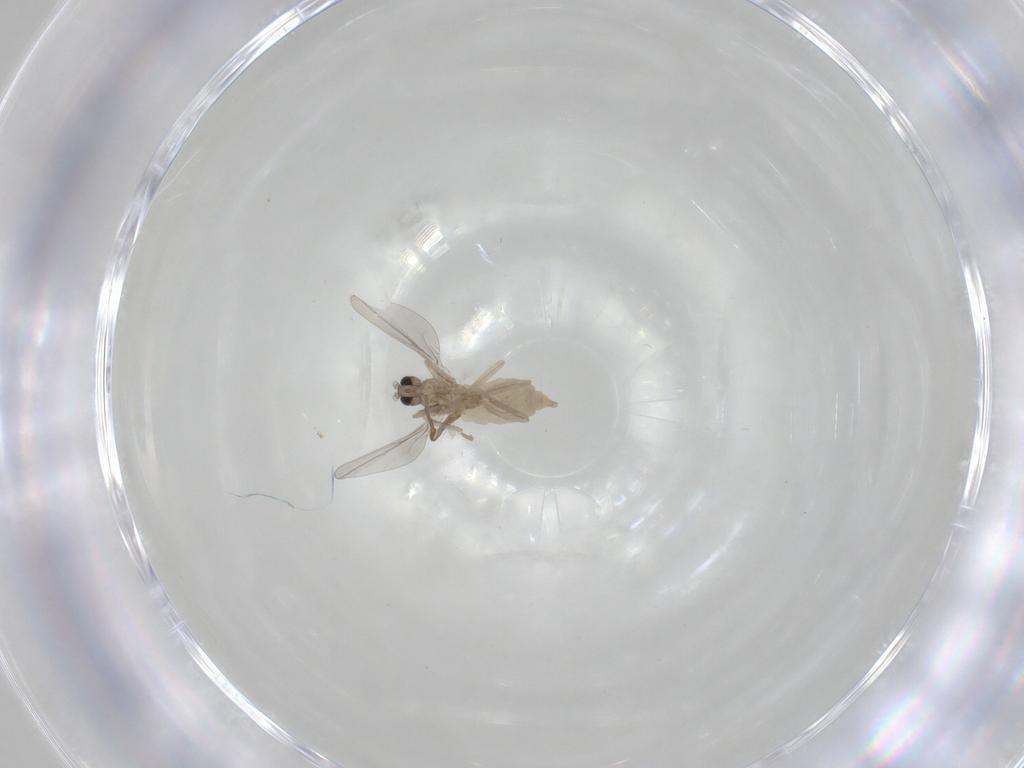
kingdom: Animalia
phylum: Arthropoda
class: Insecta
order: Diptera
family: Cecidomyiidae
